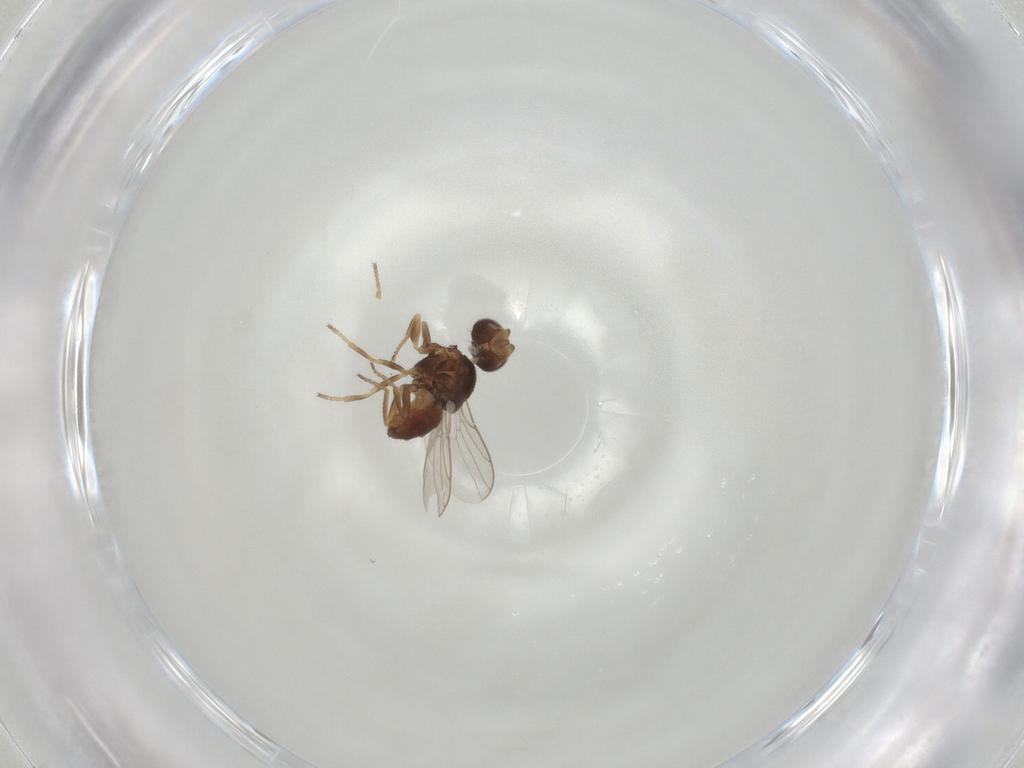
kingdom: Animalia
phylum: Arthropoda
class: Insecta
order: Diptera
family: Chloropidae
